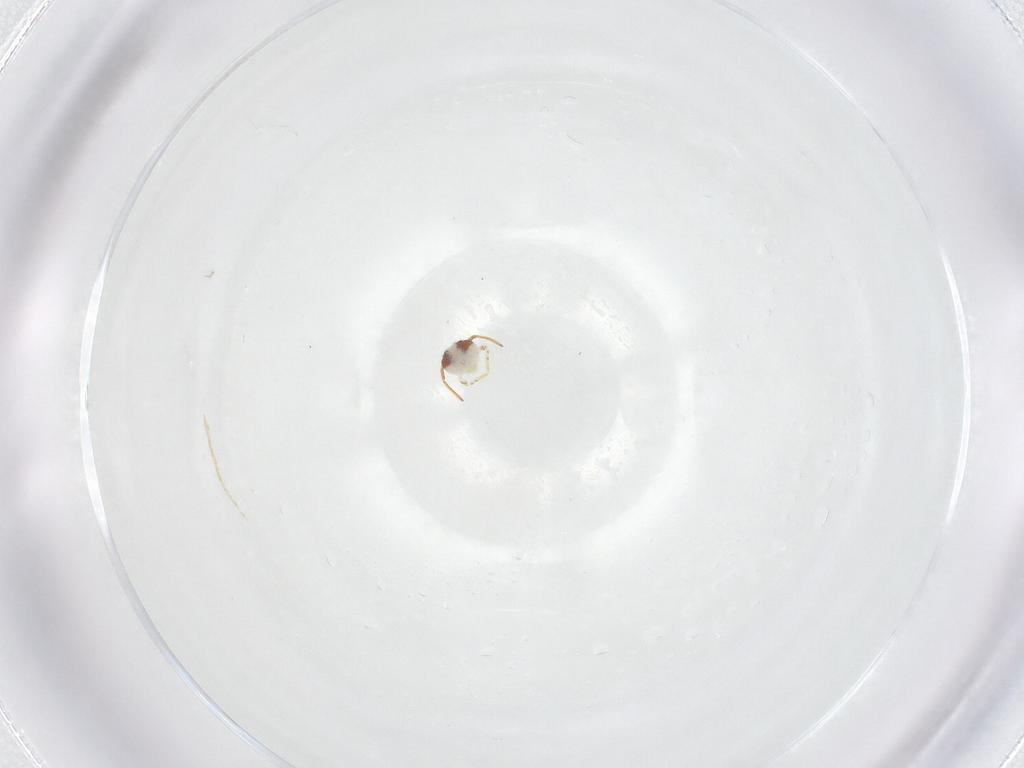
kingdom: Animalia
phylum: Arthropoda
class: Collembola
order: Symphypleona
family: Bourletiellidae
